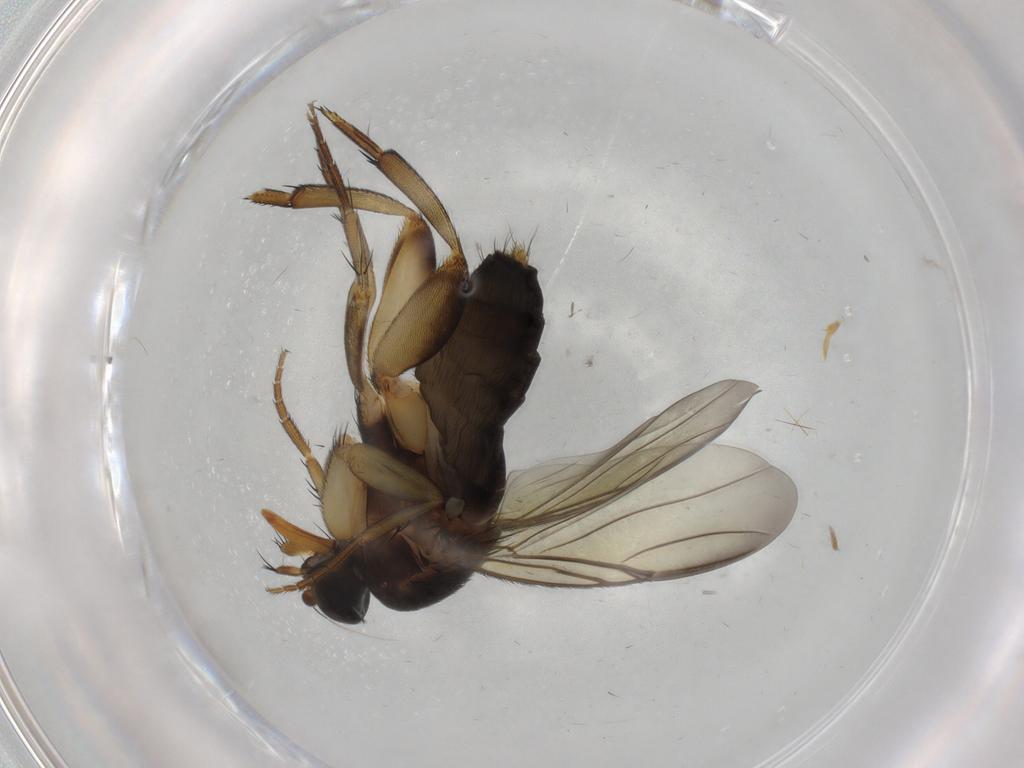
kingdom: Animalia
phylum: Arthropoda
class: Insecta
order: Diptera
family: Phoridae
